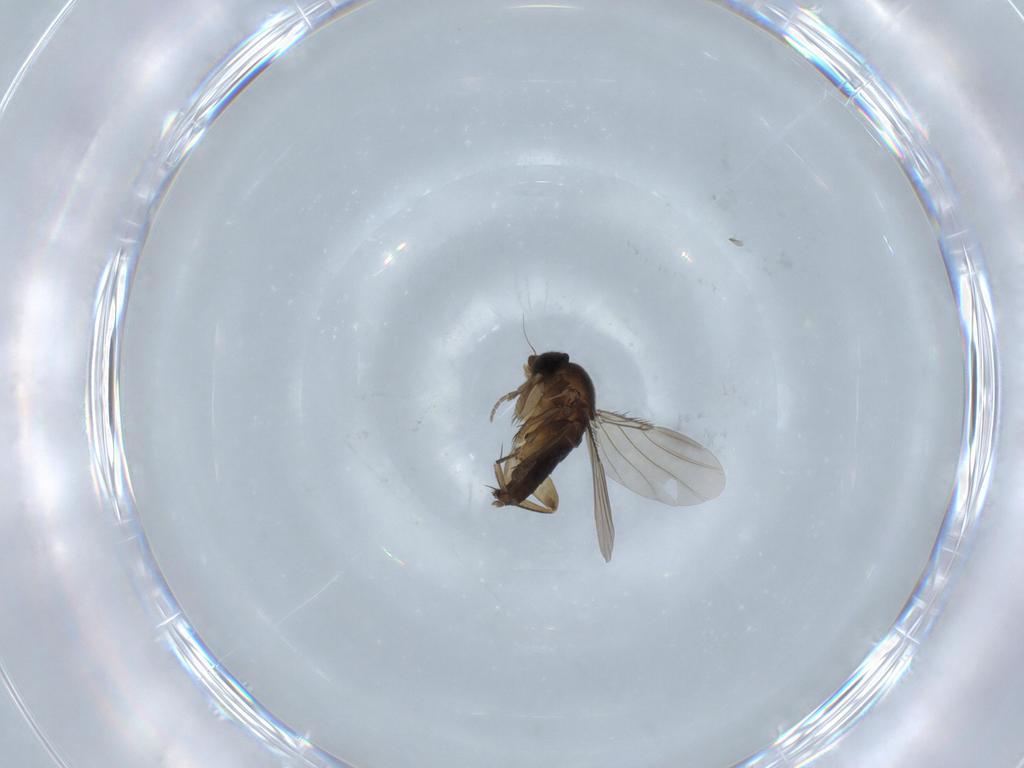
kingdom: Animalia
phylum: Arthropoda
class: Insecta
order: Diptera
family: Phoridae
